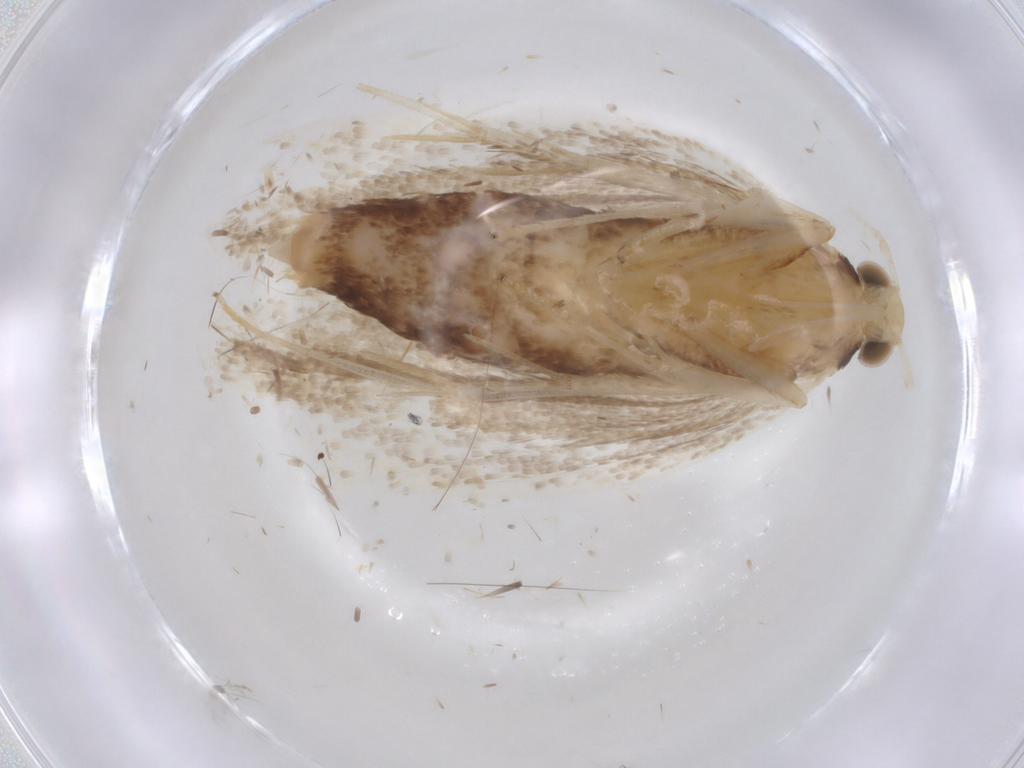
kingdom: Animalia
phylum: Arthropoda
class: Insecta
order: Lepidoptera
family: Lecithoceridae
